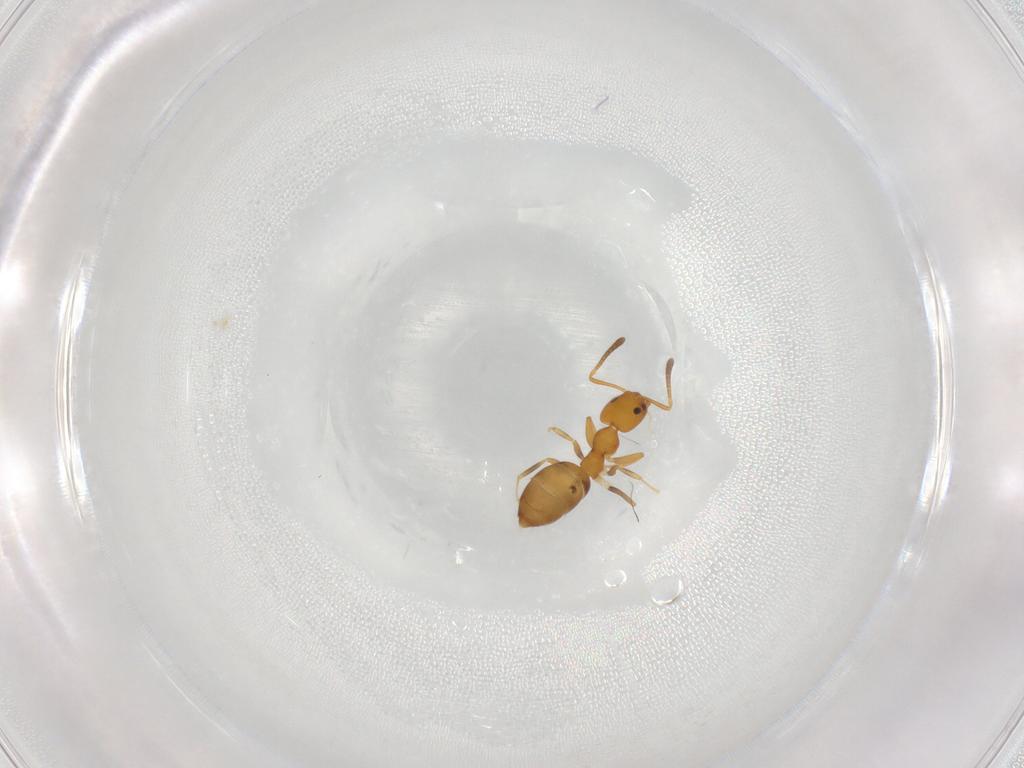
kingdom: Animalia
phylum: Arthropoda
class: Insecta
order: Hymenoptera
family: Formicidae
